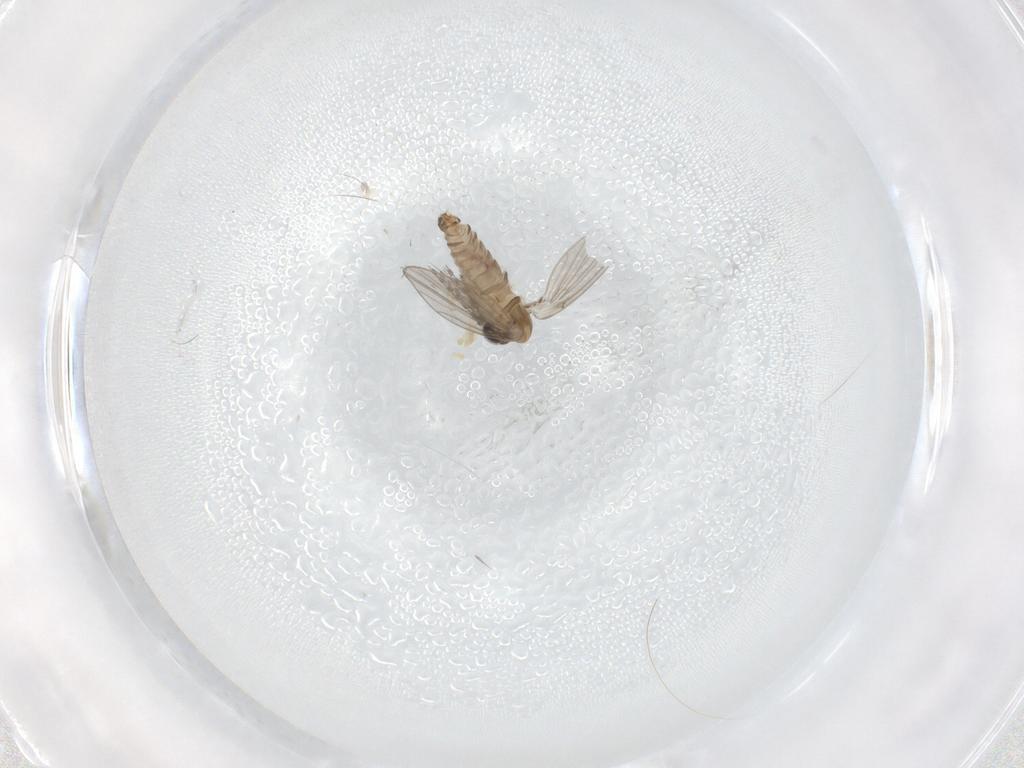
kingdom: Animalia
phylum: Arthropoda
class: Insecta
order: Diptera
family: Psychodidae
